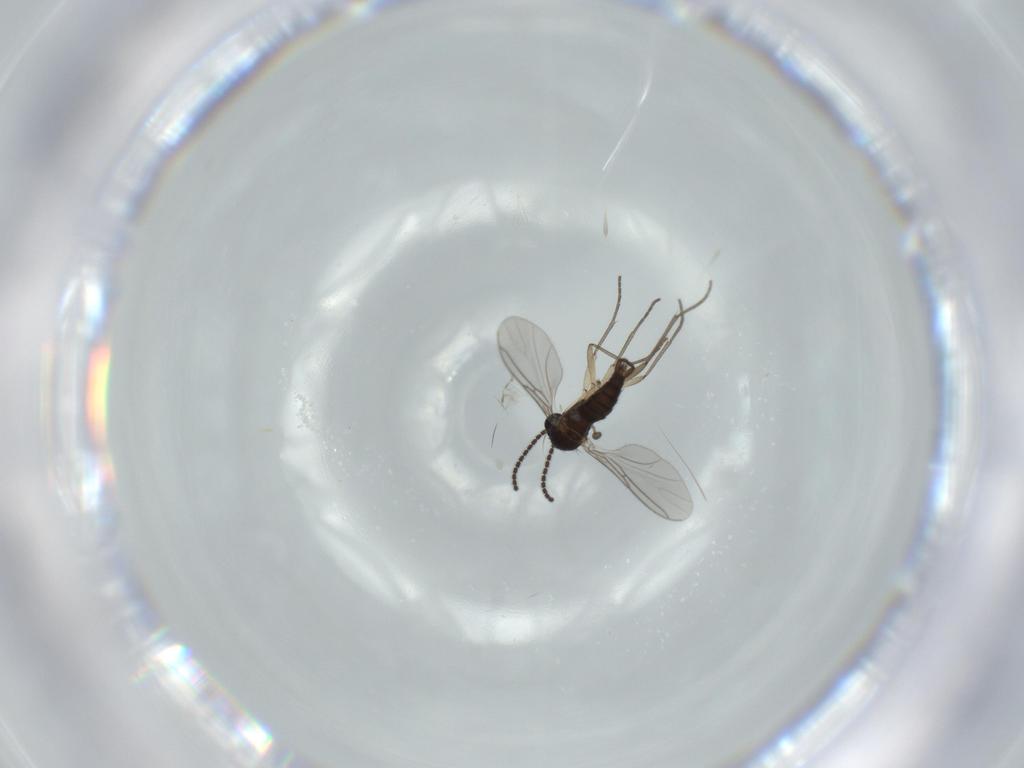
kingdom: Animalia
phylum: Arthropoda
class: Insecta
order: Diptera
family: Sciaridae
